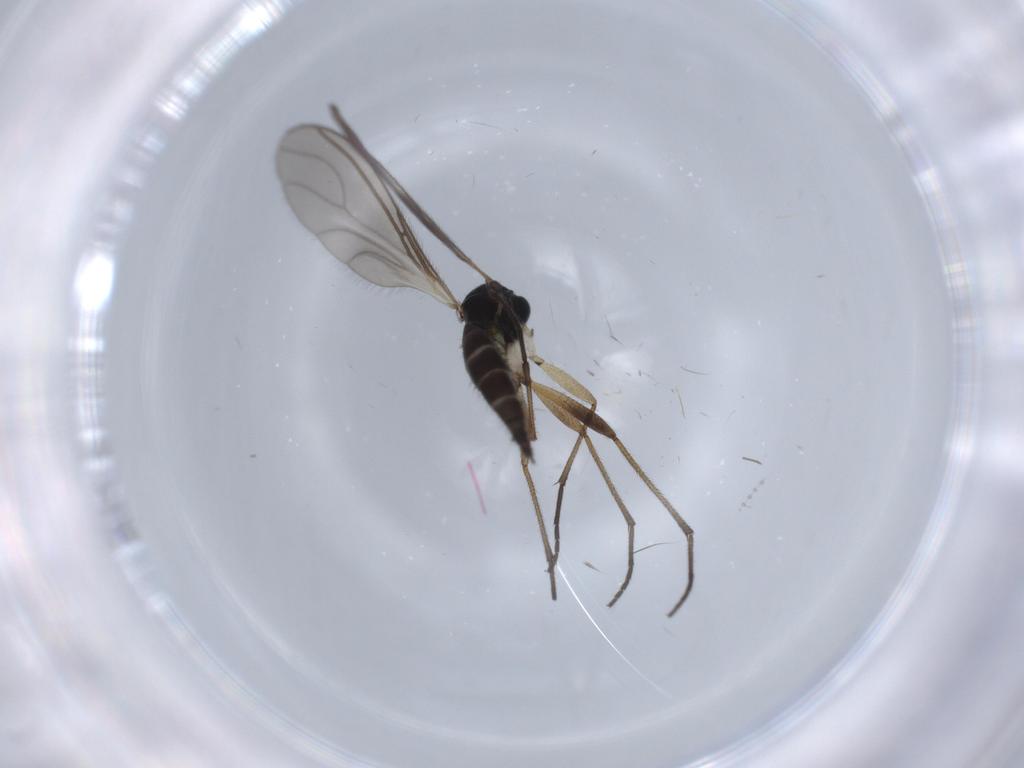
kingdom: Animalia
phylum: Arthropoda
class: Insecta
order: Diptera
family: Sciaridae
